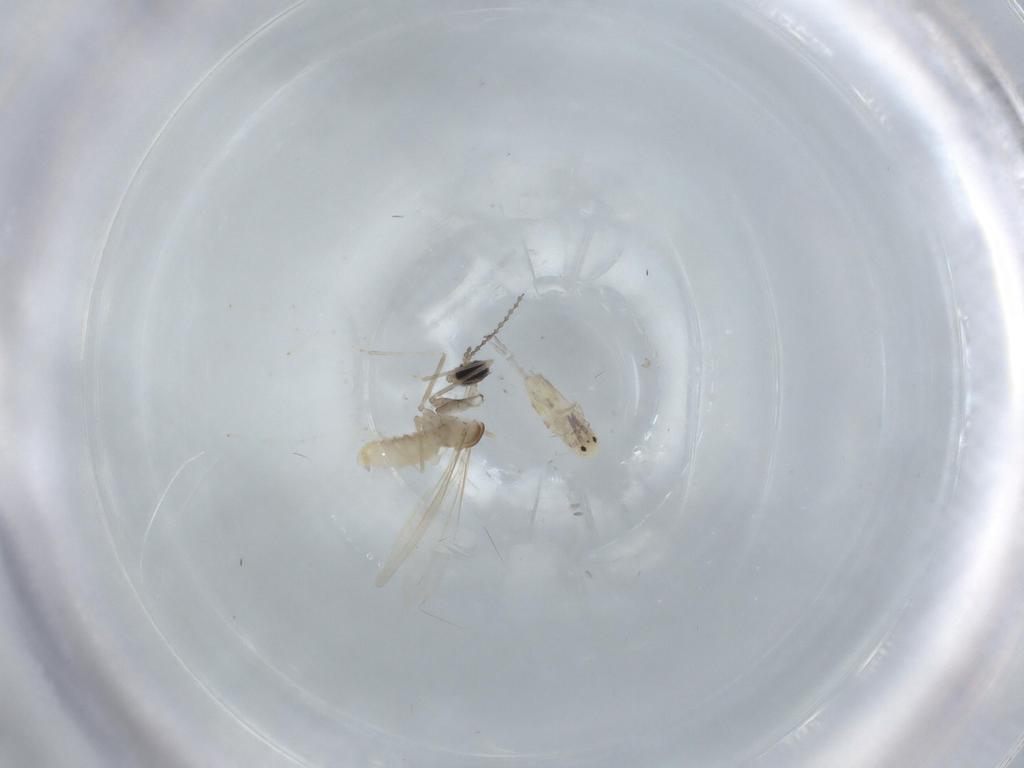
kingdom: Animalia
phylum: Arthropoda
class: Insecta
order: Diptera
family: Cecidomyiidae
